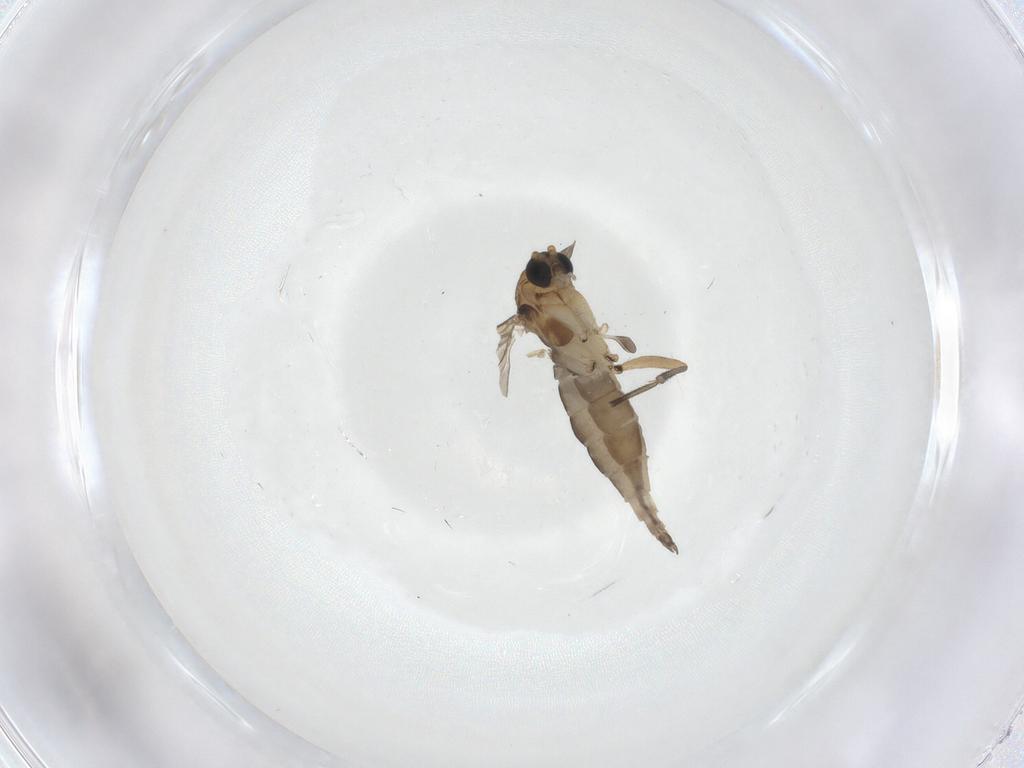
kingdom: Animalia
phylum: Arthropoda
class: Insecta
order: Diptera
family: Sciaridae
